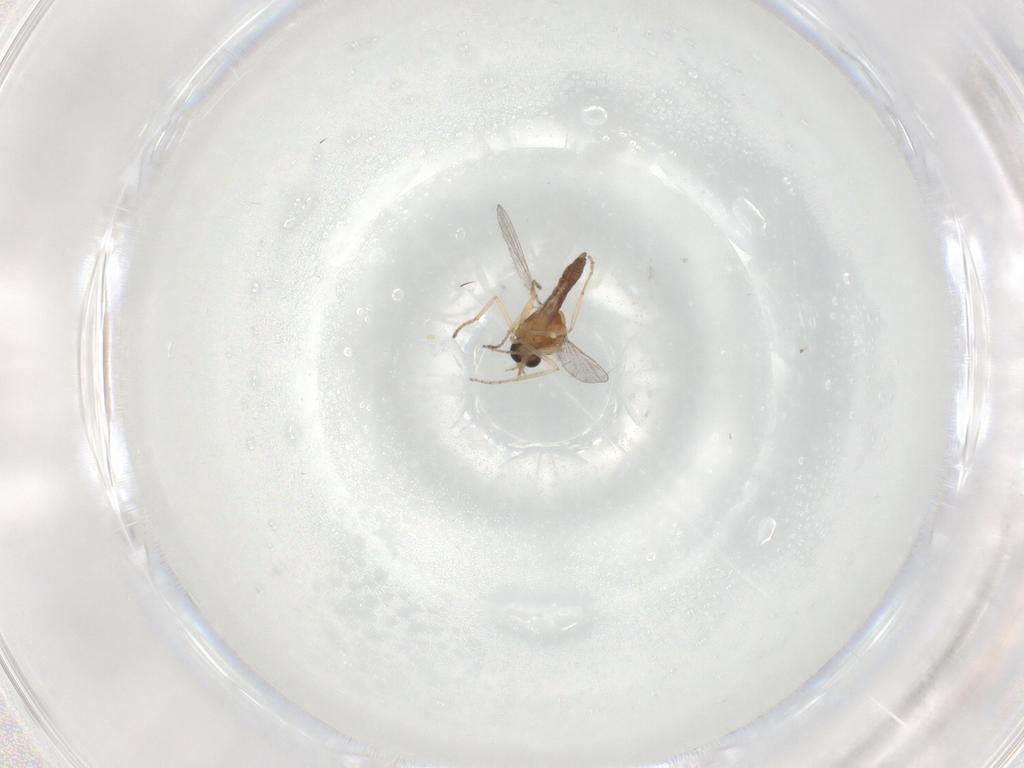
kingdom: Animalia
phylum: Arthropoda
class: Insecta
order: Diptera
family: Ceratopogonidae
